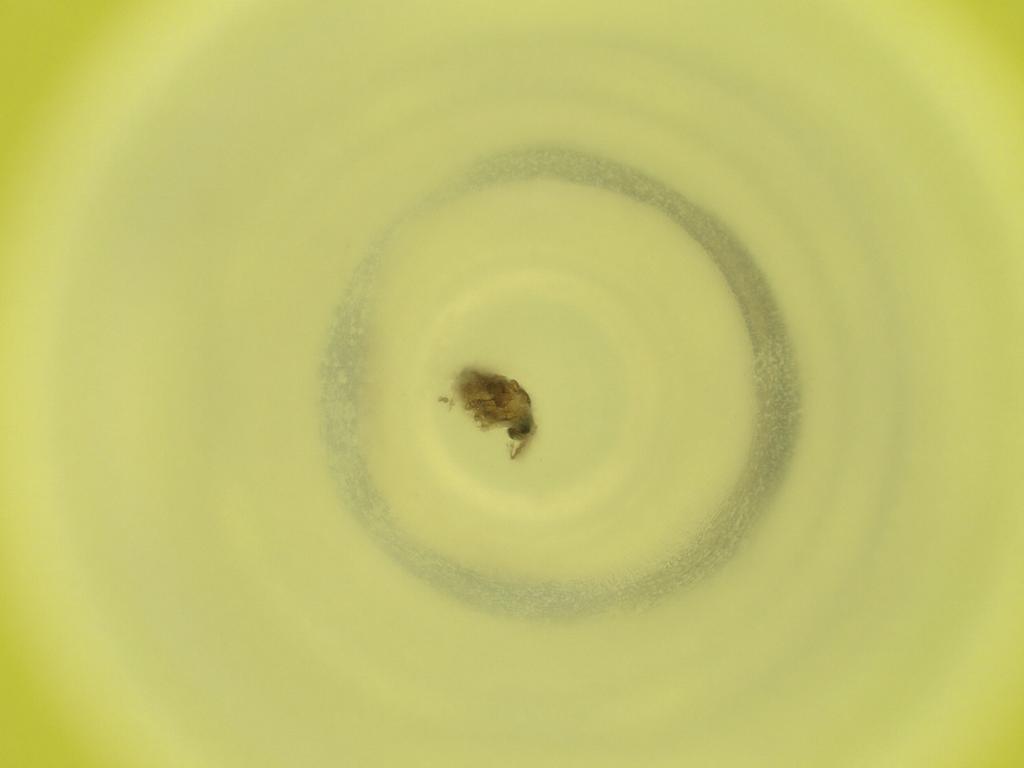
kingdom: Animalia
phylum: Arthropoda
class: Insecta
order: Diptera
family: Cecidomyiidae
